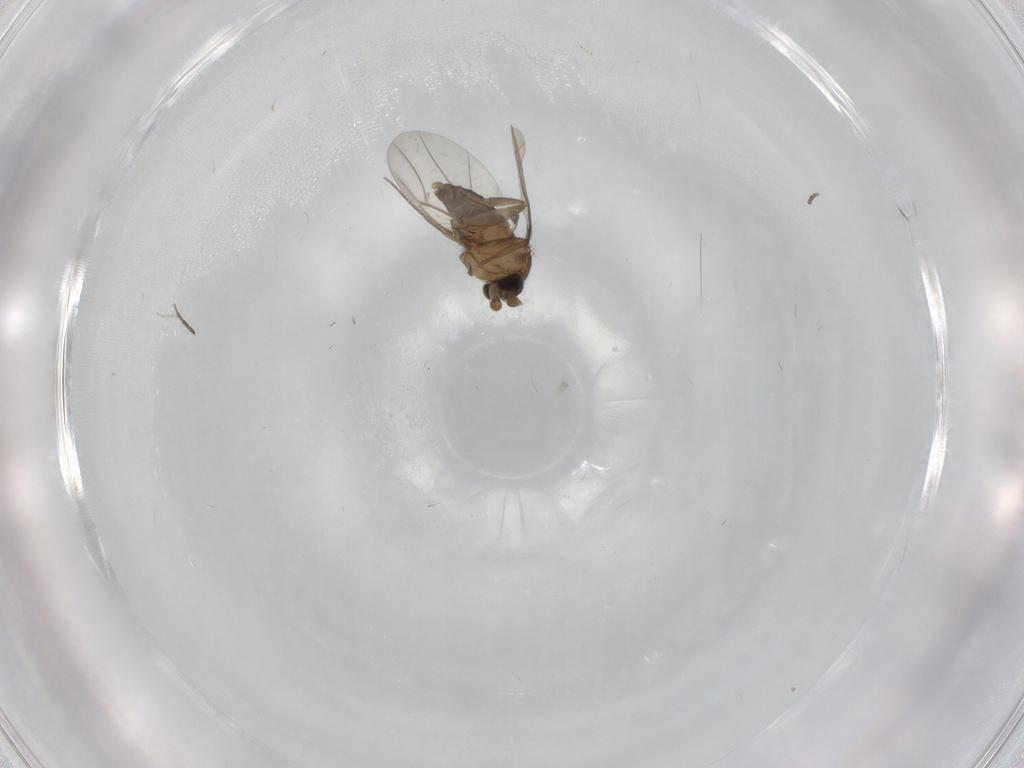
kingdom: Animalia
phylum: Arthropoda
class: Insecta
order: Diptera
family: Cecidomyiidae
